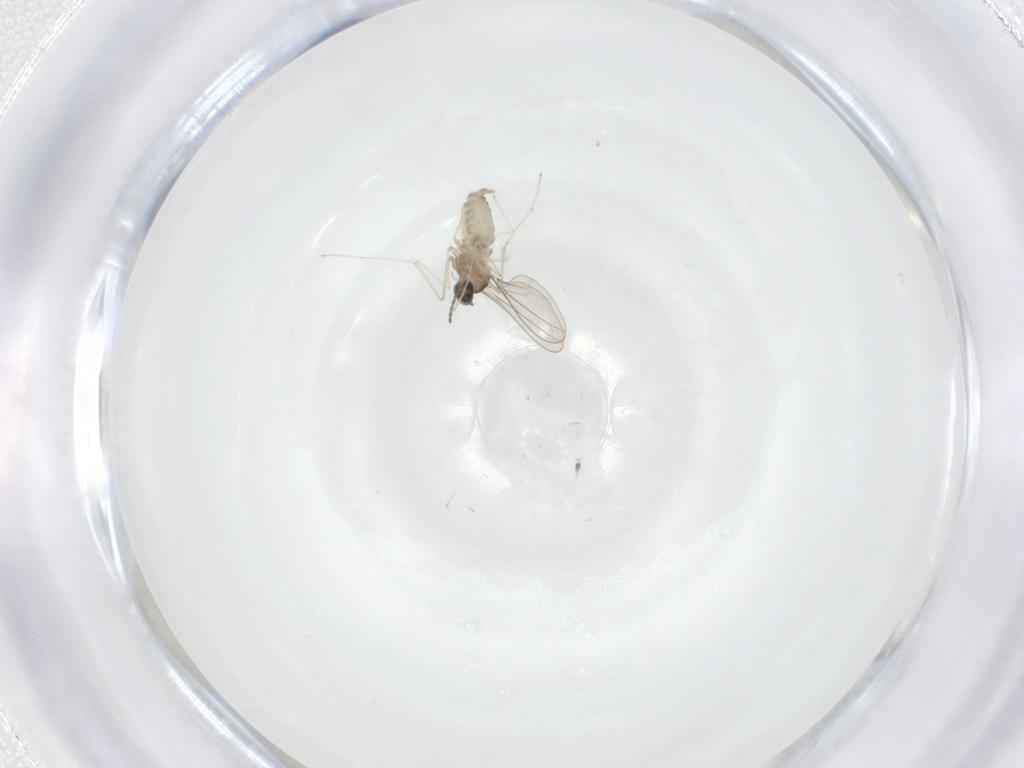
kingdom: Animalia
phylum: Arthropoda
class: Insecta
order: Diptera
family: Cecidomyiidae
